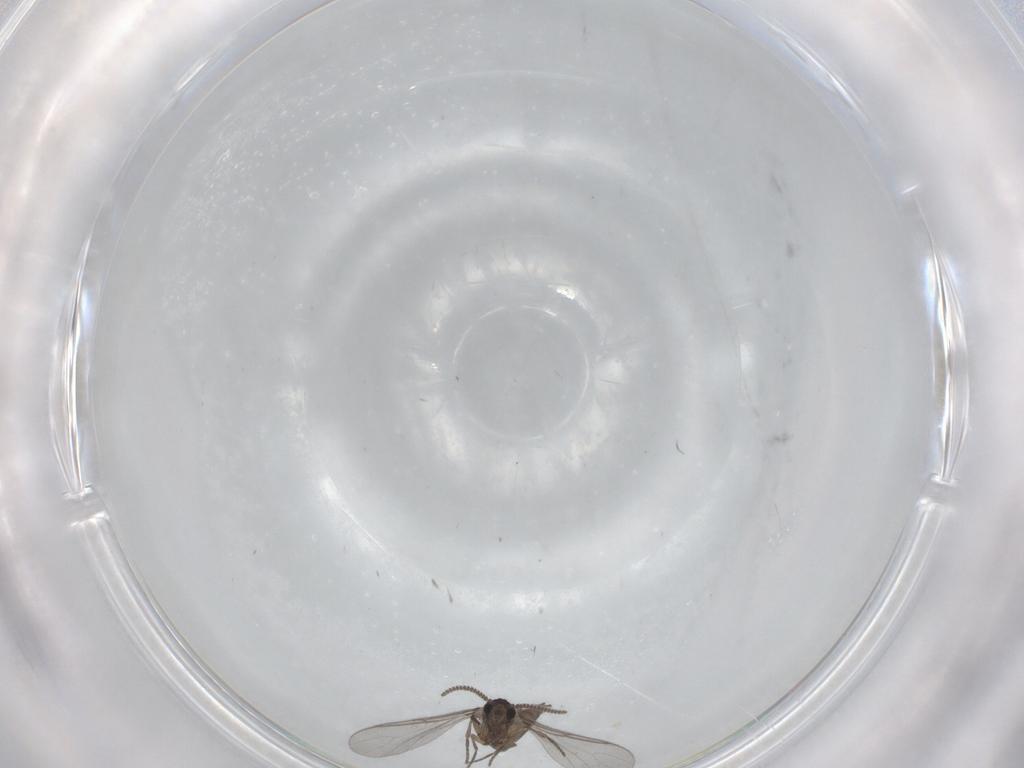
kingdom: Animalia
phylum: Arthropoda
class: Insecta
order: Diptera
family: Sciaridae
